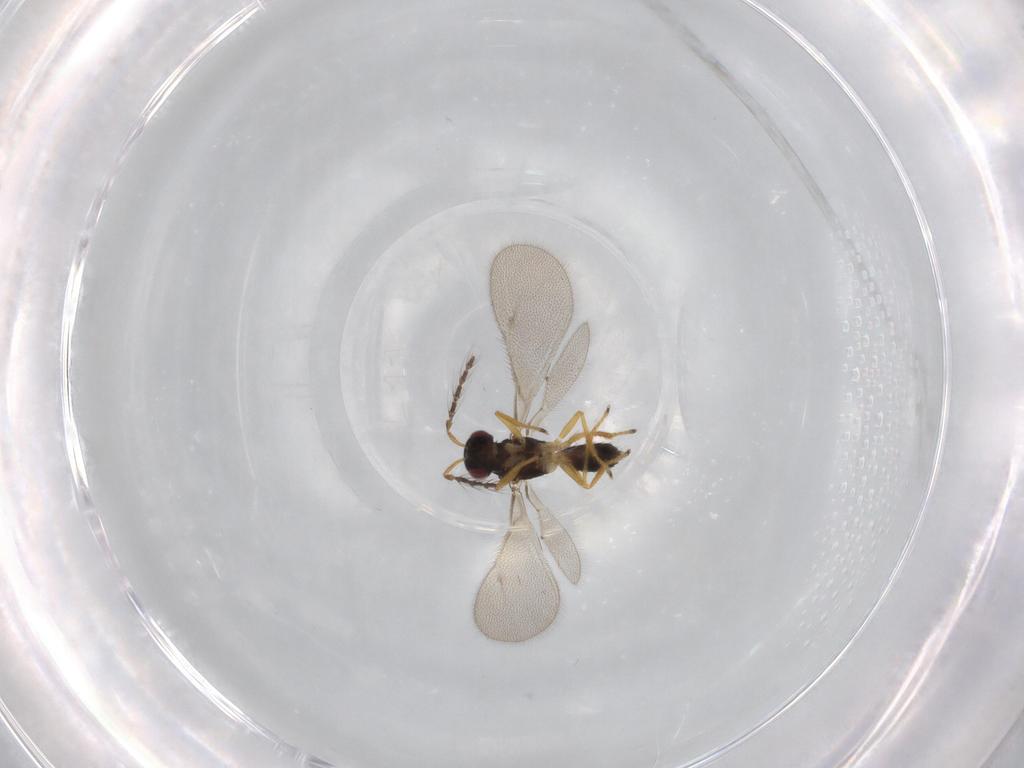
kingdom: Animalia
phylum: Arthropoda
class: Insecta
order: Hymenoptera
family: Eulophidae
